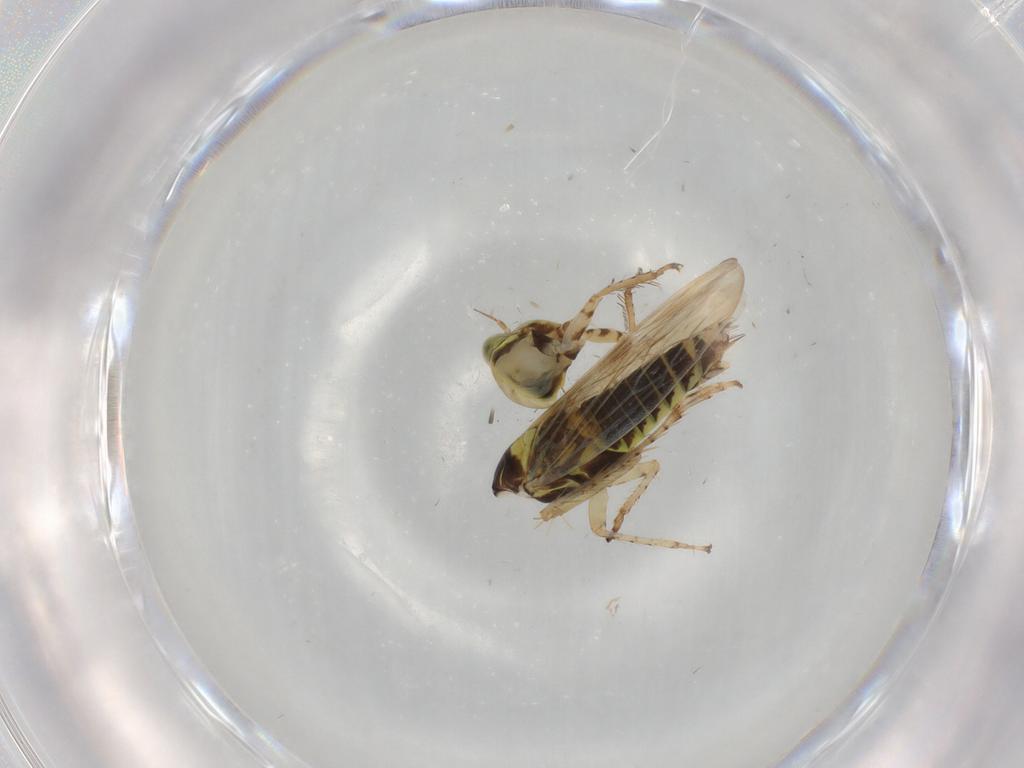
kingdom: Animalia
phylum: Arthropoda
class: Insecta
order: Hemiptera
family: Cicadellidae
